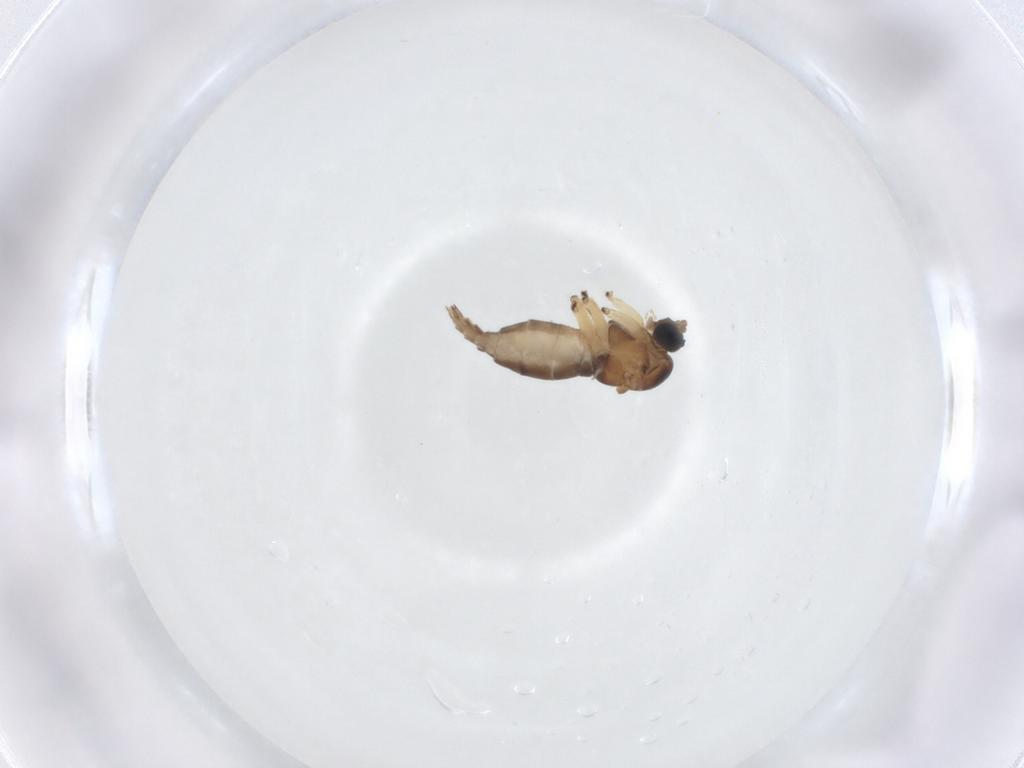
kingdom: Animalia
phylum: Arthropoda
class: Insecta
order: Diptera
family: Sciaridae
